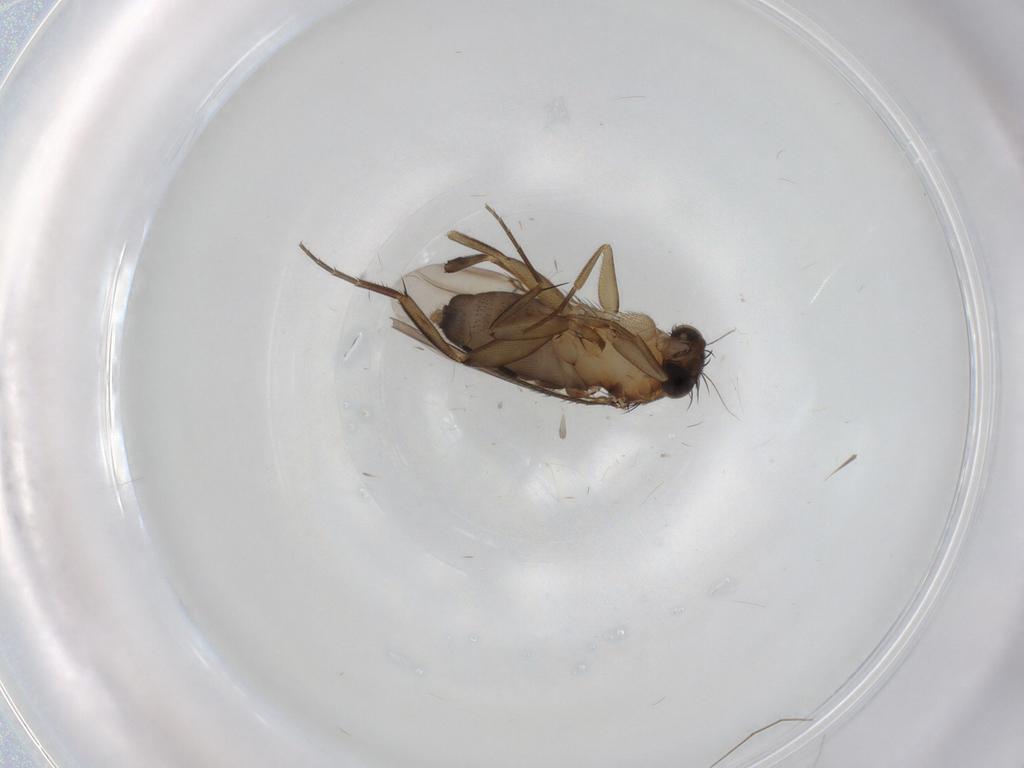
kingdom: Animalia
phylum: Arthropoda
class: Insecta
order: Diptera
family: Phoridae
